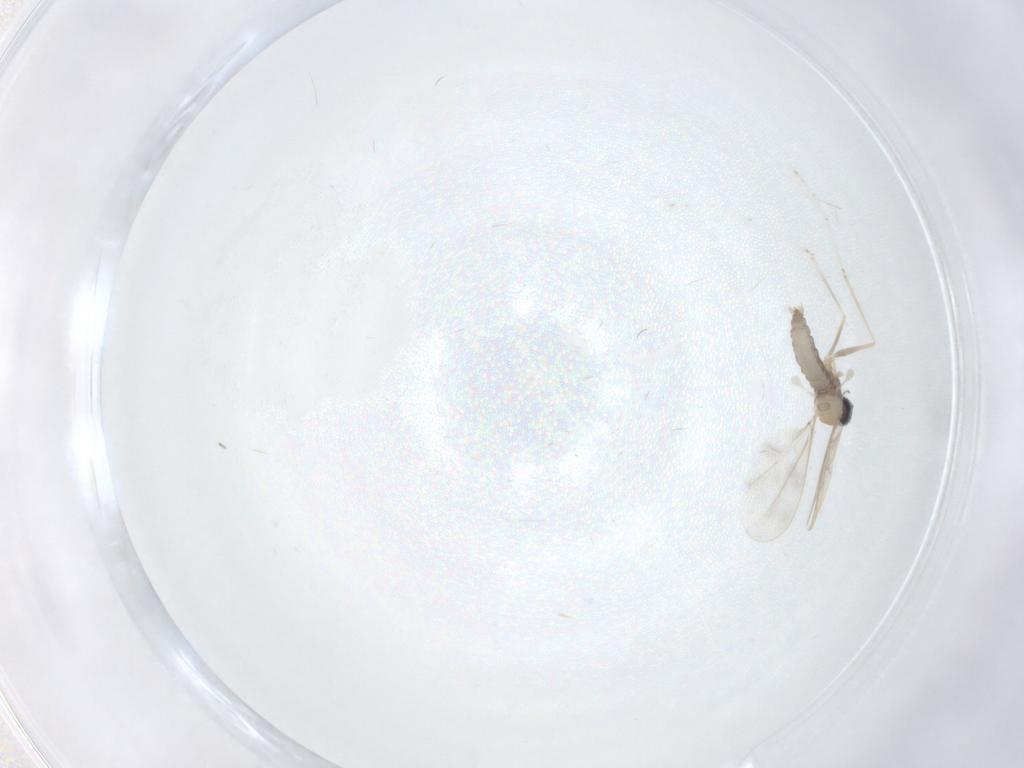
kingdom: Animalia
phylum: Arthropoda
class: Insecta
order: Diptera
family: Cecidomyiidae
